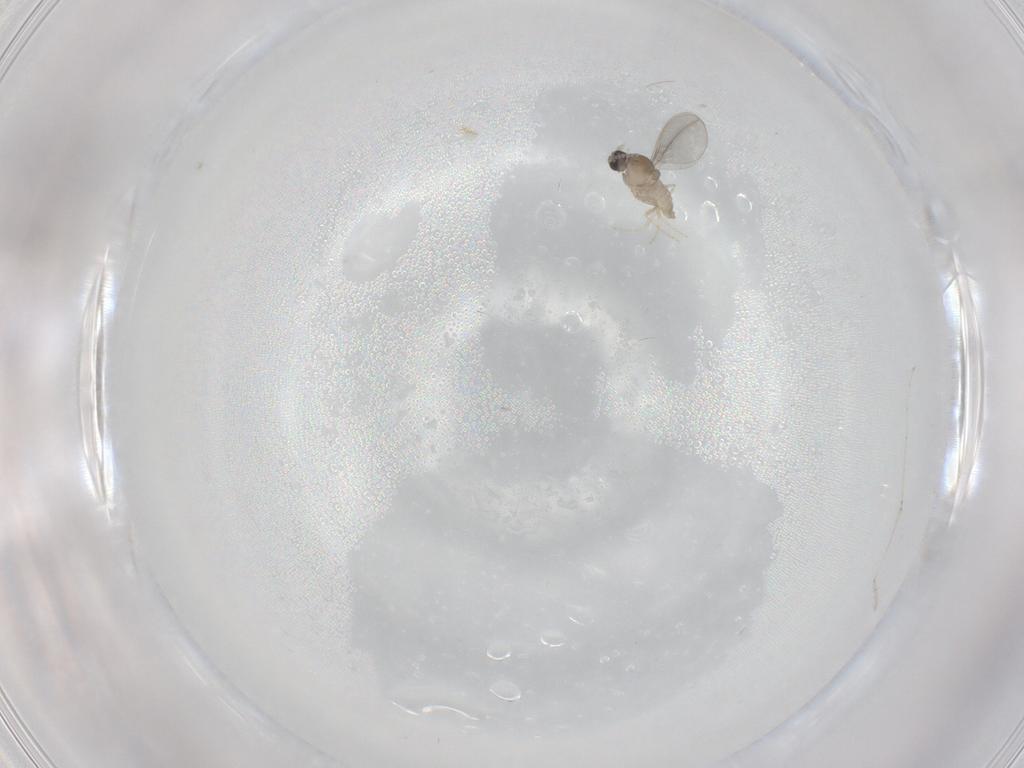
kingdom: Animalia
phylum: Arthropoda
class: Insecta
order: Diptera
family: Cecidomyiidae
